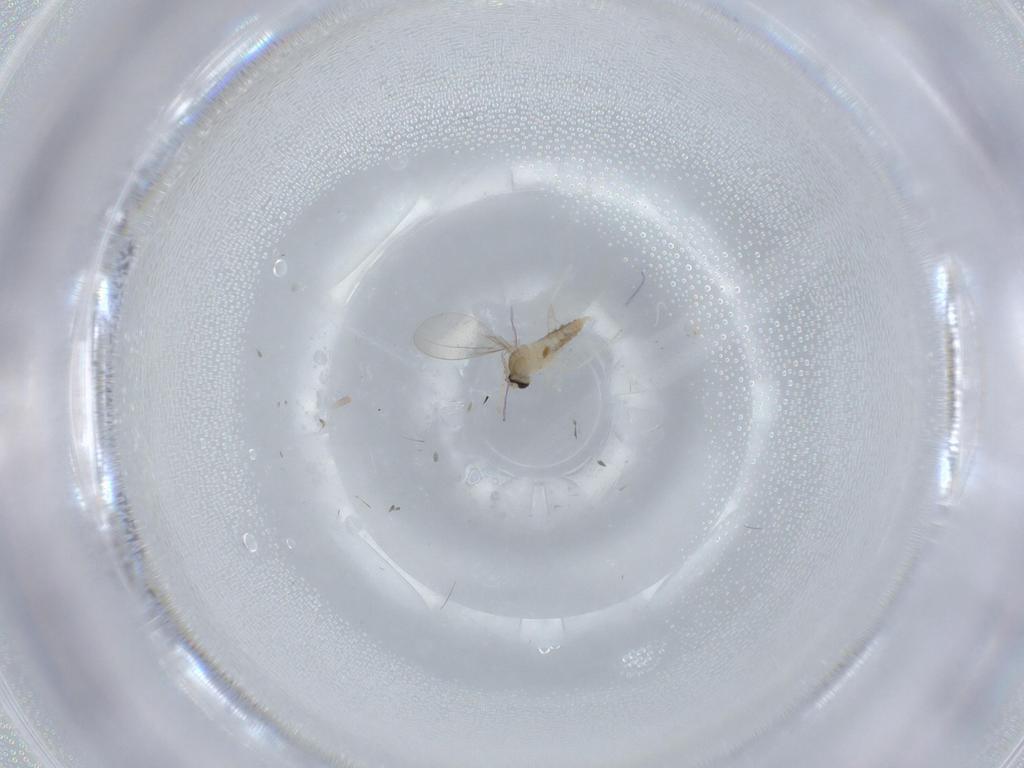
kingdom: Animalia
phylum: Arthropoda
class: Insecta
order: Diptera
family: Cecidomyiidae
